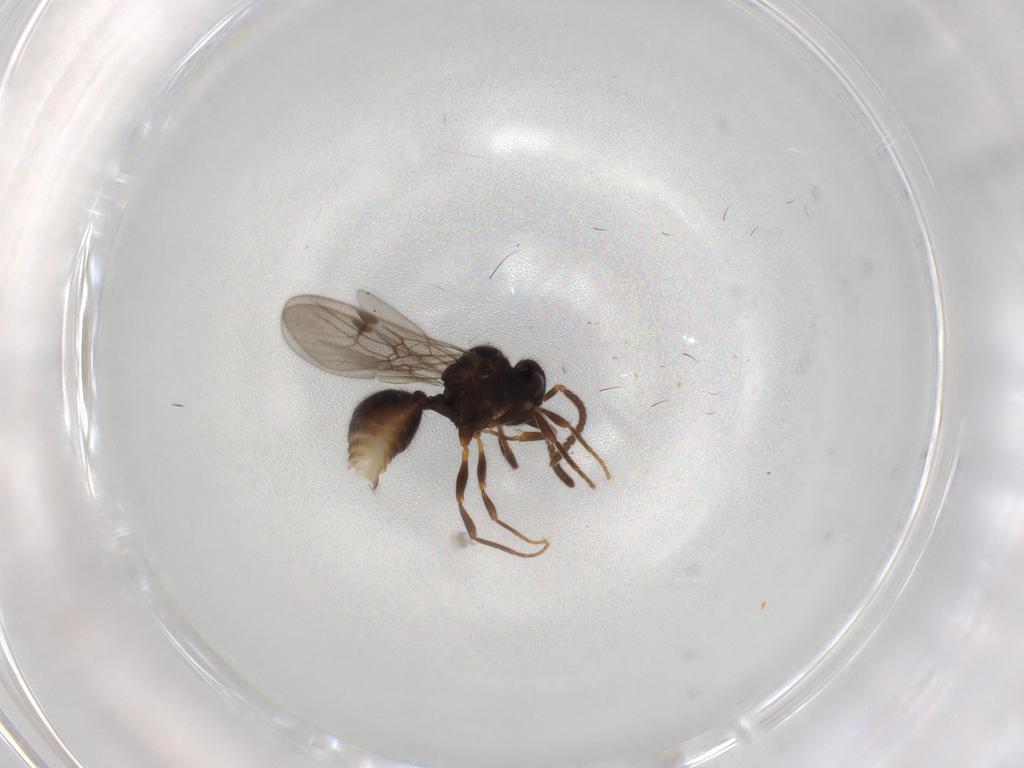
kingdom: Animalia
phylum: Arthropoda
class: Insecta
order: Hymenoptera
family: Formicidae
